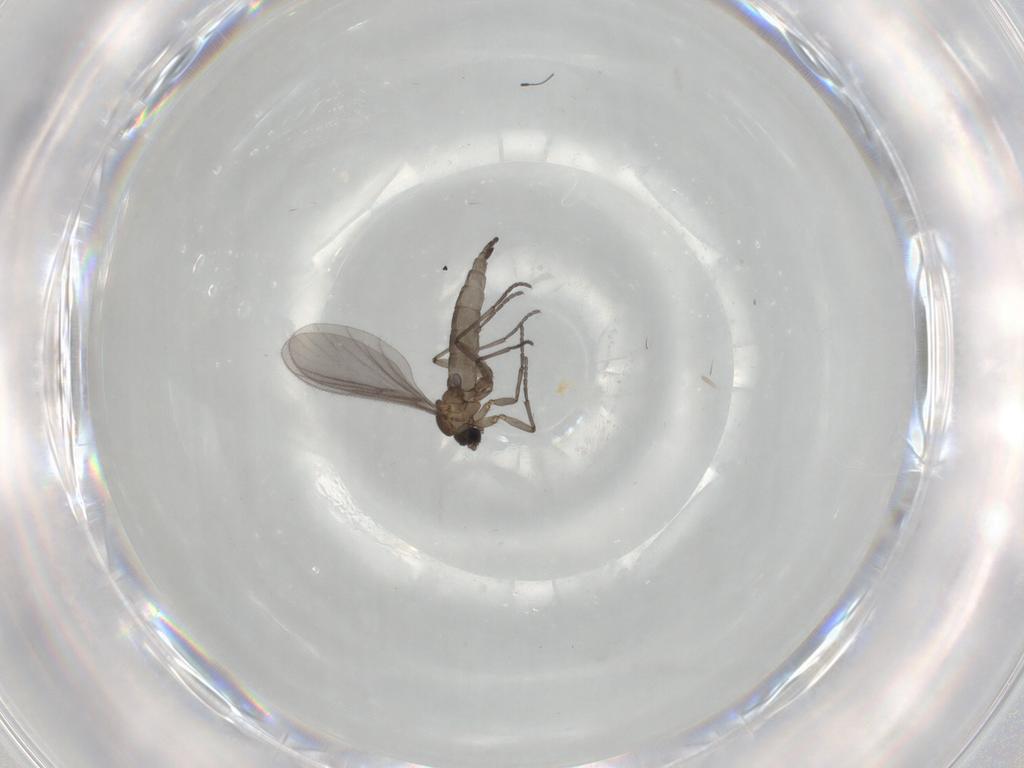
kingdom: Animalia
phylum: Arthropoda
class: Insecta
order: Diptera
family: Sciaridae
